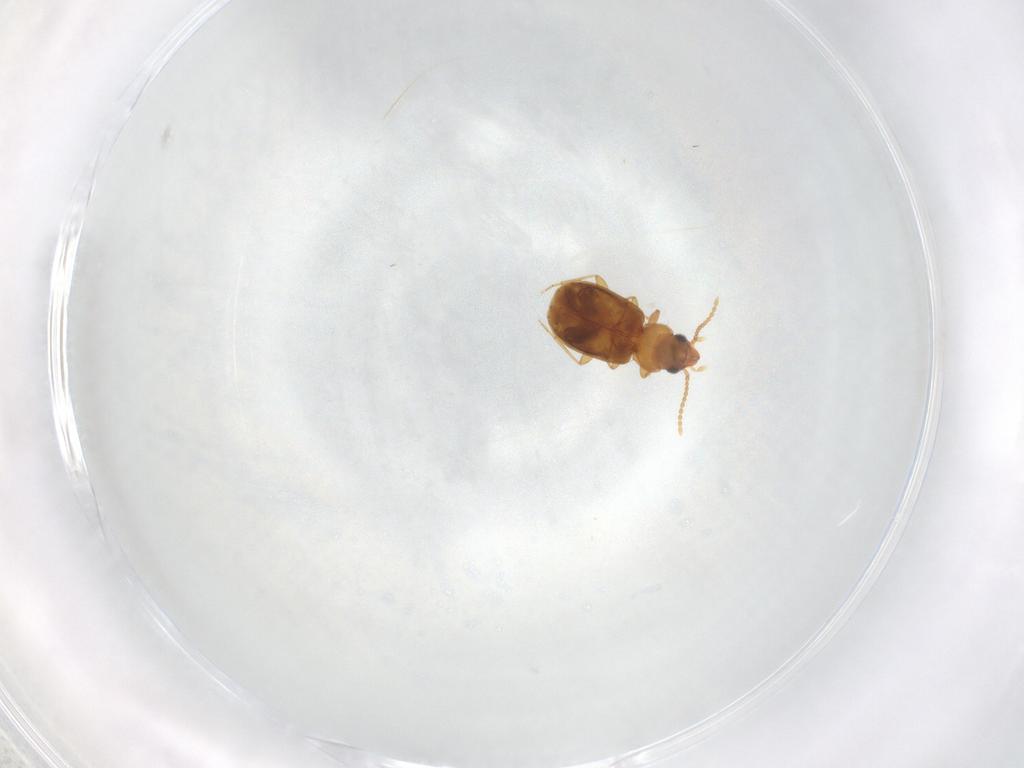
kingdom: Animalia
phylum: Arthropoda
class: Insecta
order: Coleoptera
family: Carabidae
